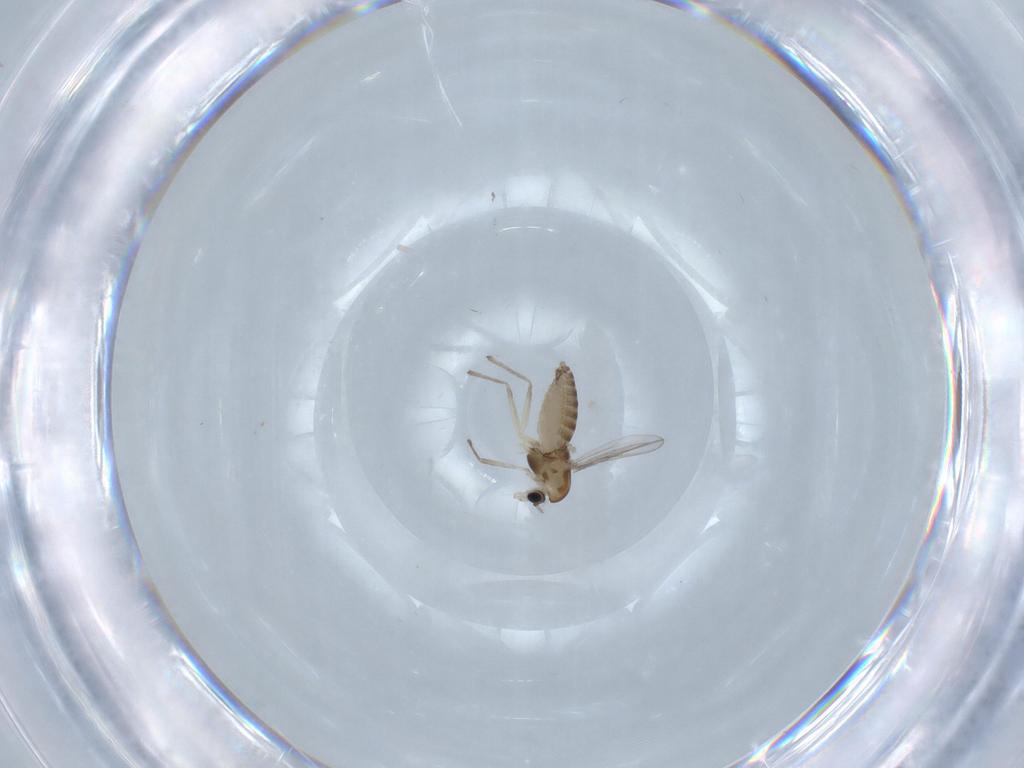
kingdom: Animalia
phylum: Arthropoda
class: Insecta
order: Diptera
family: Chironomidae
